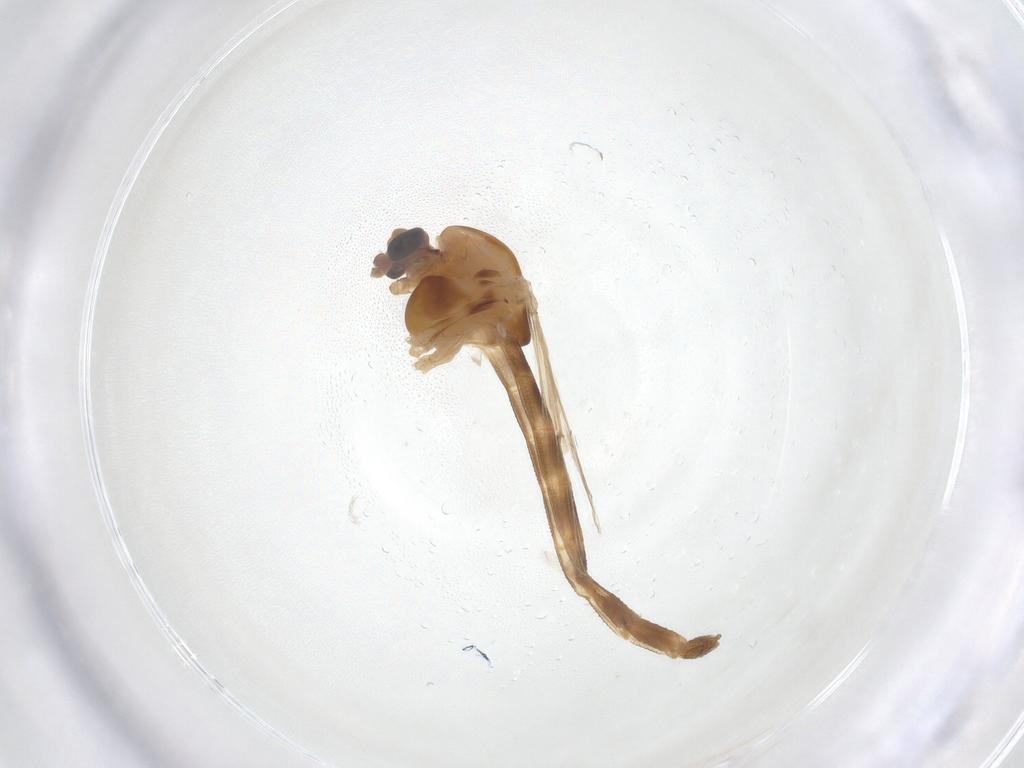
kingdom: Animalia
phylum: Arthropoda
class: Insecta
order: Diptera
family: Chironomidae
